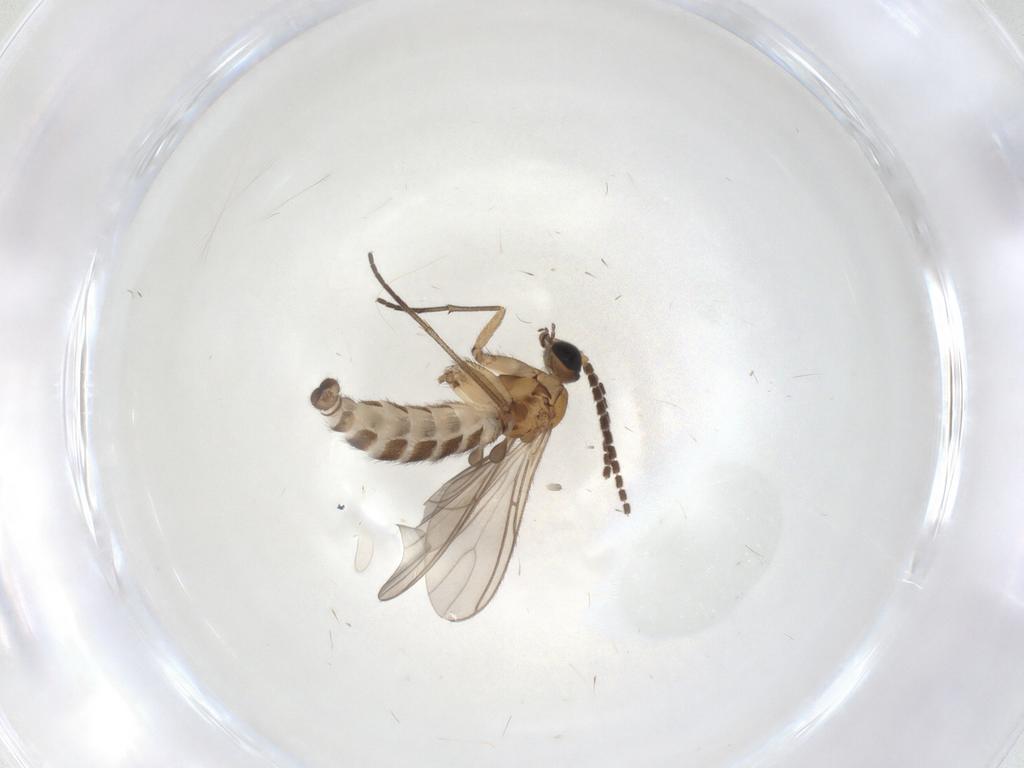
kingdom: Animalia
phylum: Arthropoda
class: Insecta
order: Diptera
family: Sciaridae
